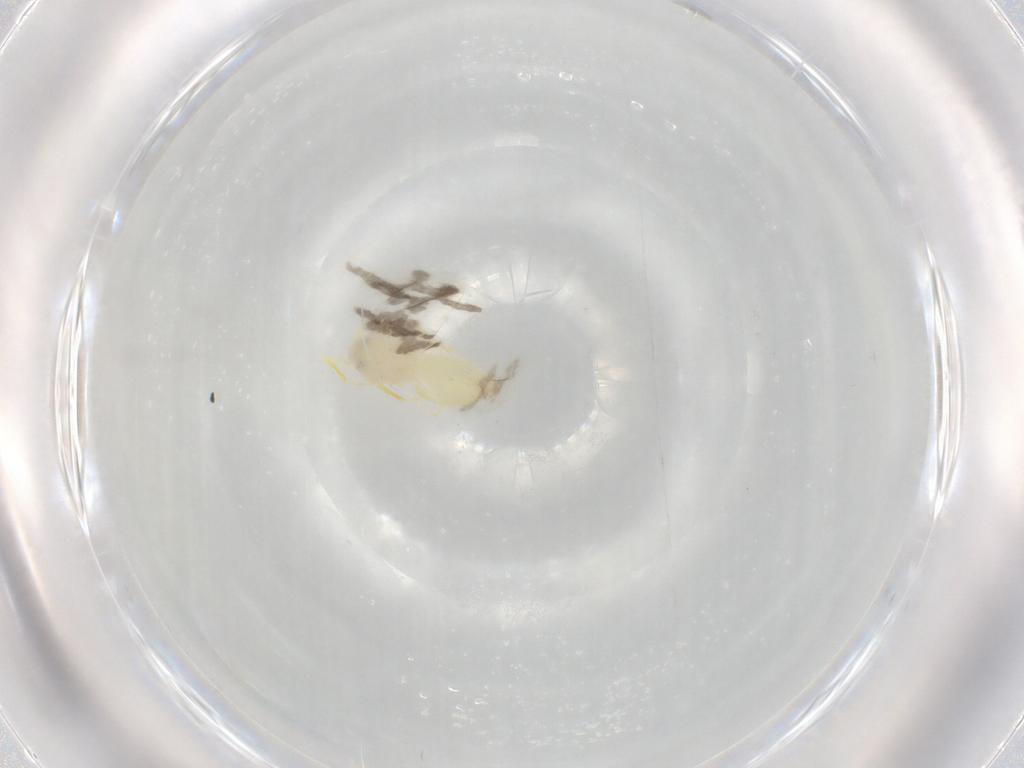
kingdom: Animalia
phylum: Arthropoda
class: Insecta
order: Hemiptera
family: Aleyrodidae
